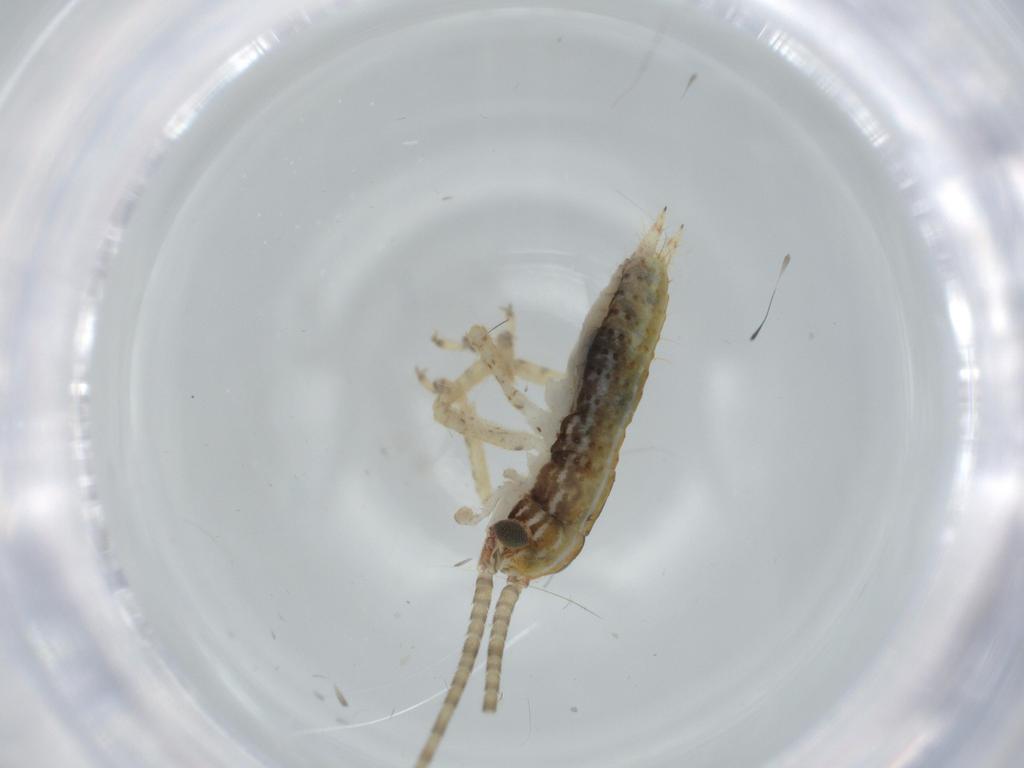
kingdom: Animalia
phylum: Arthropoda
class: Insecta
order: Orthoptera
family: Gryllidae
